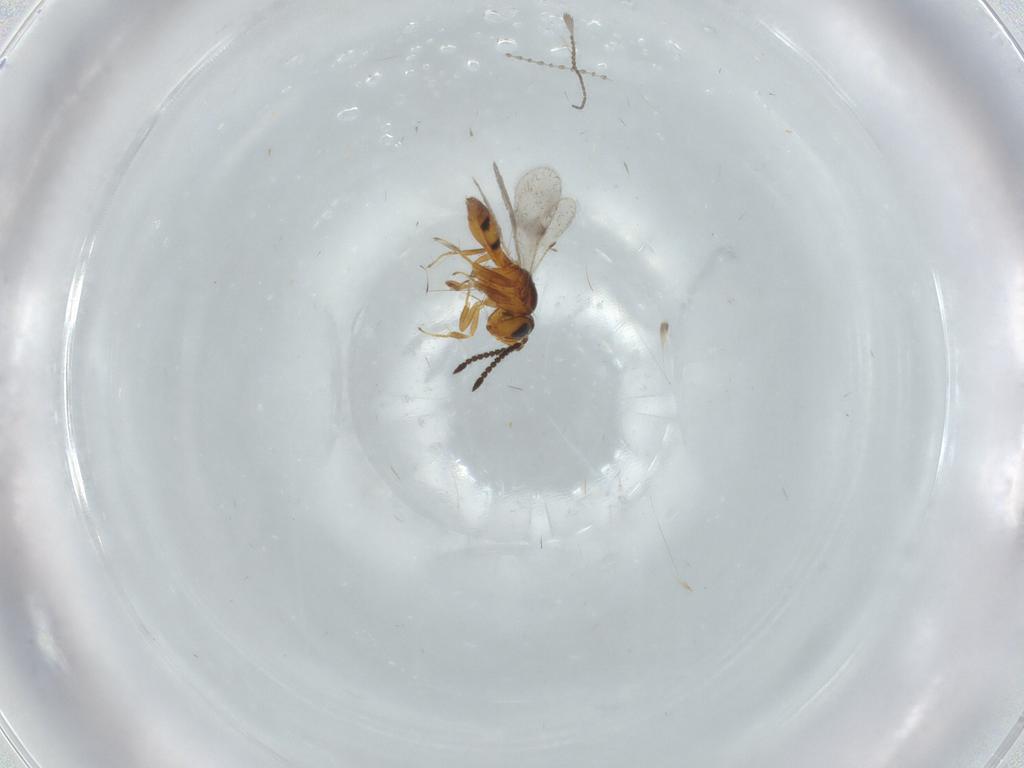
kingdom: Animalia
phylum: Arthropoda
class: Insecta
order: Hymenoptera
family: Scelionidae
